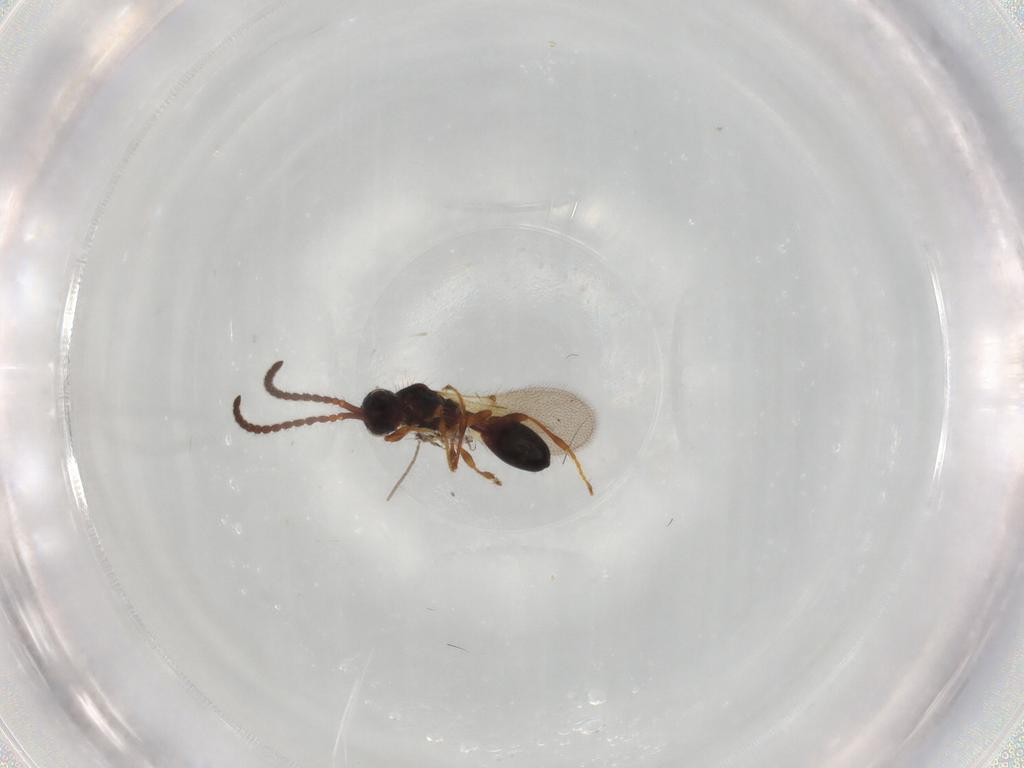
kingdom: Animalia
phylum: Arthropoda
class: Insecta
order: Hymenoptera
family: Diapriidae
